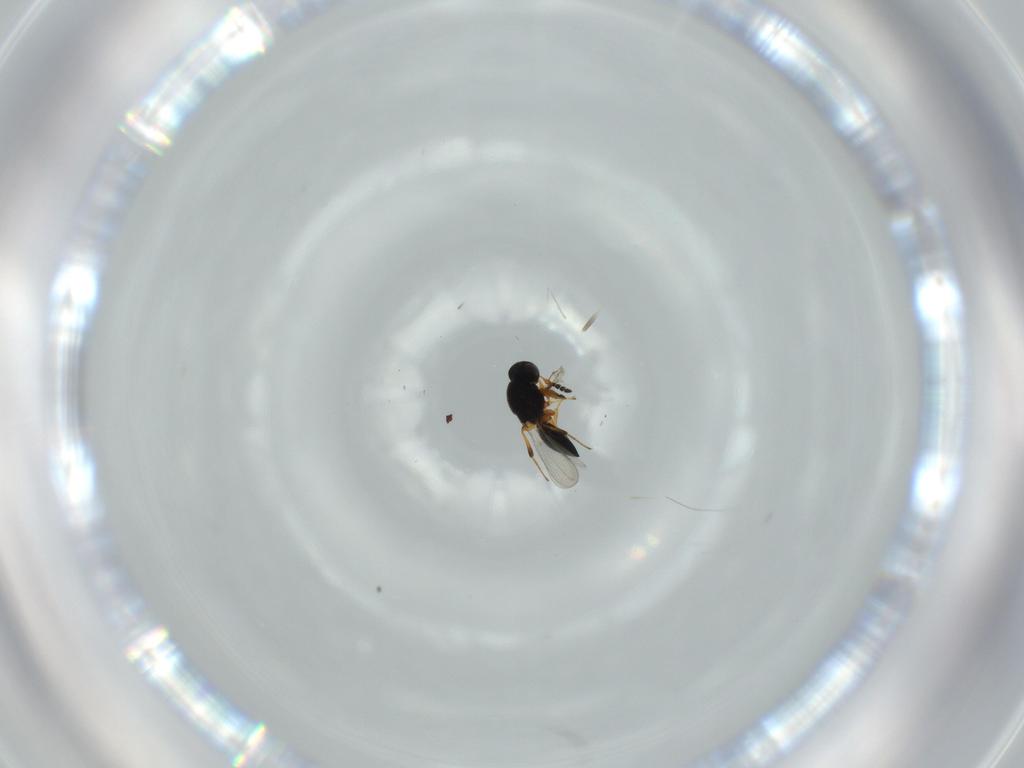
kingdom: Animalia
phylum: Arthropoda
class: Insecta
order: Hymenoptera
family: Platygastridae
